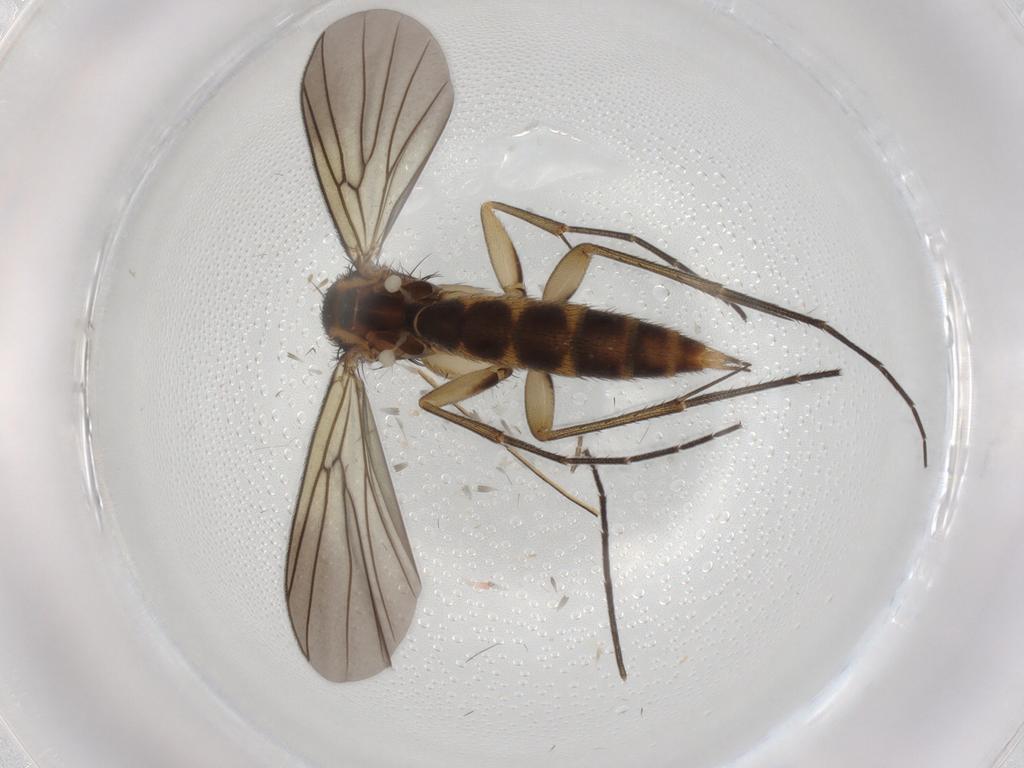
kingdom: Animalia
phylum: Arthropoda
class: Insecta
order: Diptera
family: Mycetophilidae
